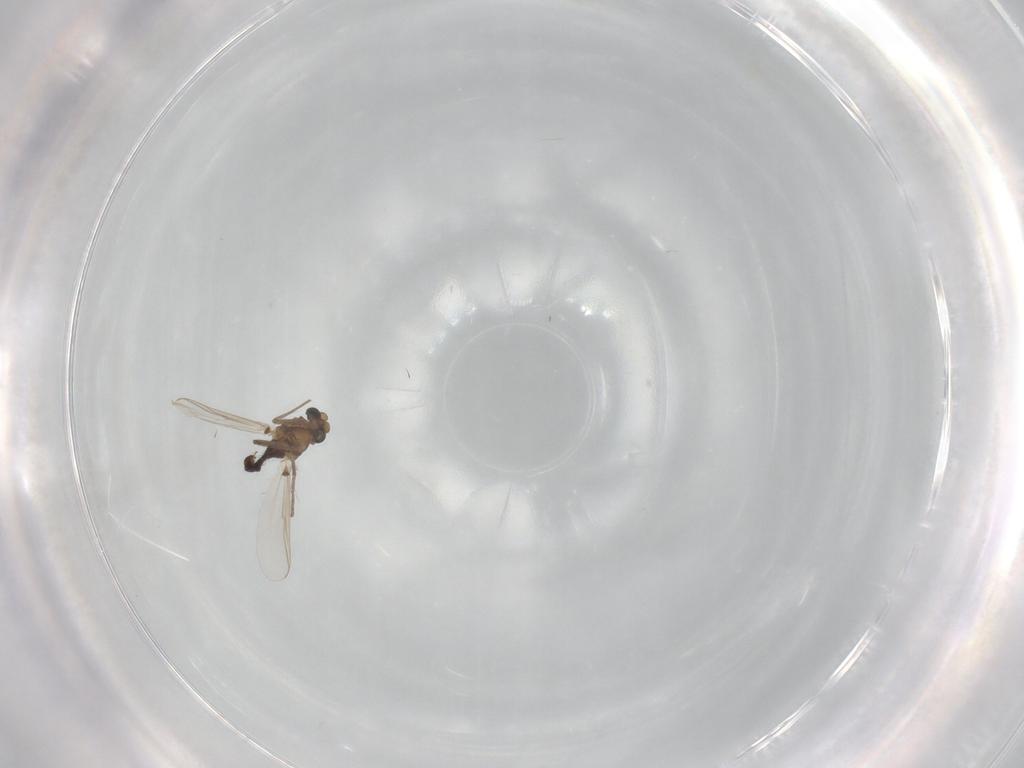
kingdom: Animalia
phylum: Arthropoda
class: Insecta
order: Diptera
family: Chironomidae
